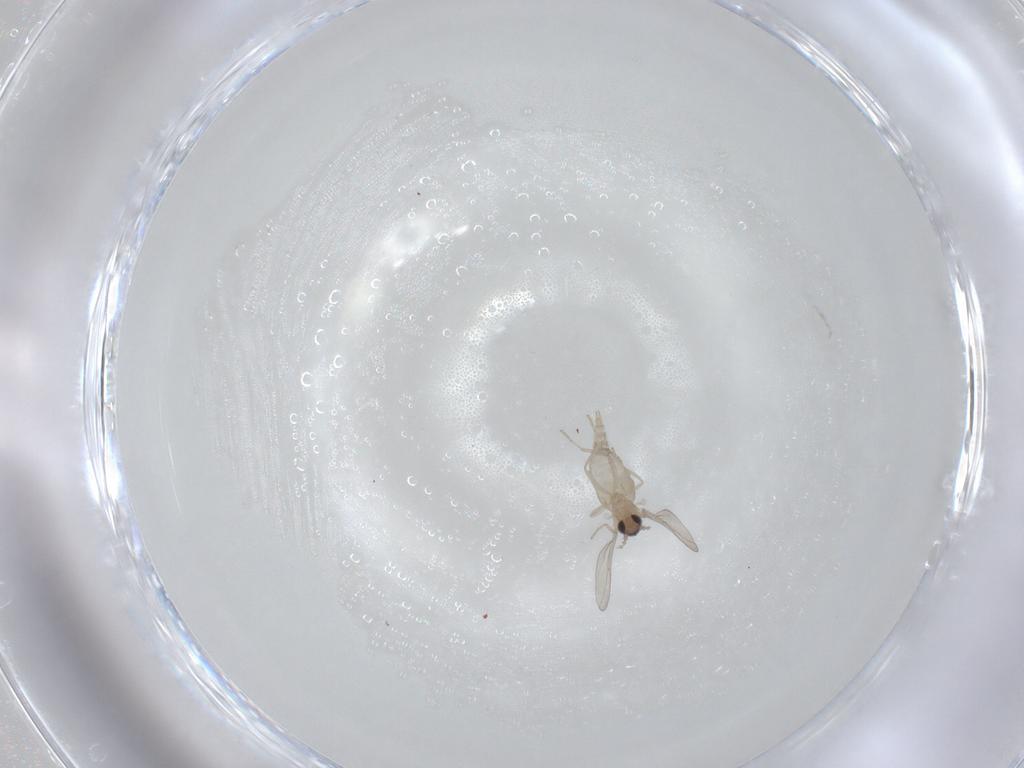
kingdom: Animalia
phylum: Arthropoda
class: Insecta
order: Diptera
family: Cecidomyiidae
